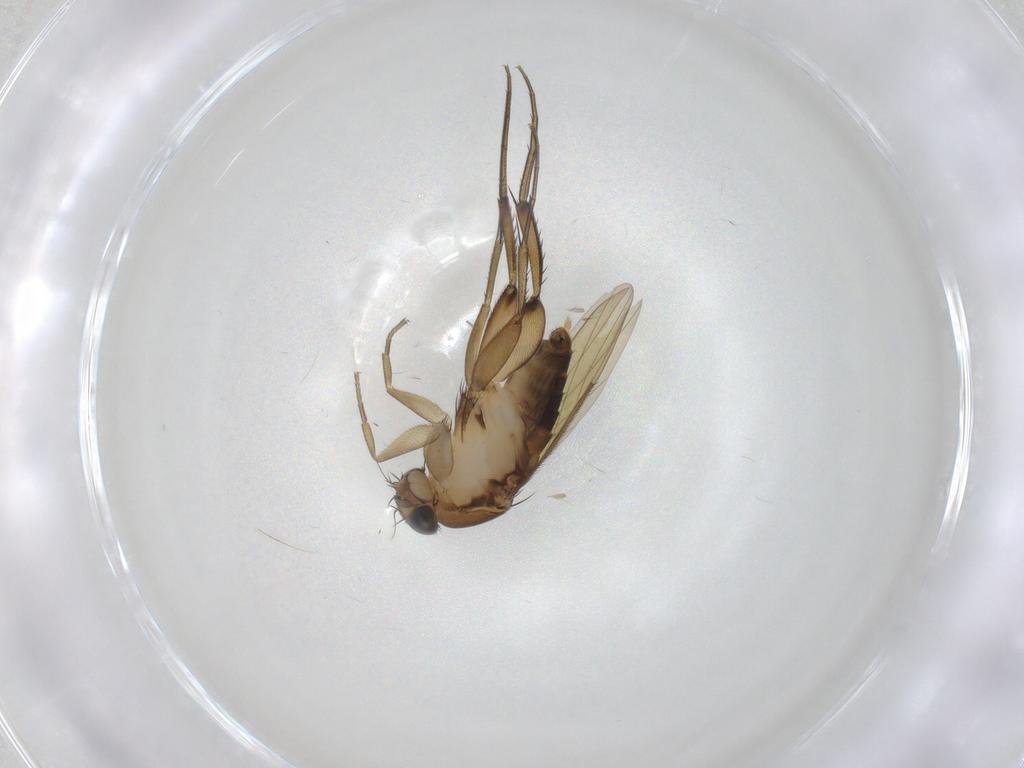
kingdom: Animalia
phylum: Arthropoda
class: Insecta
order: Diptera
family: Phoridae
